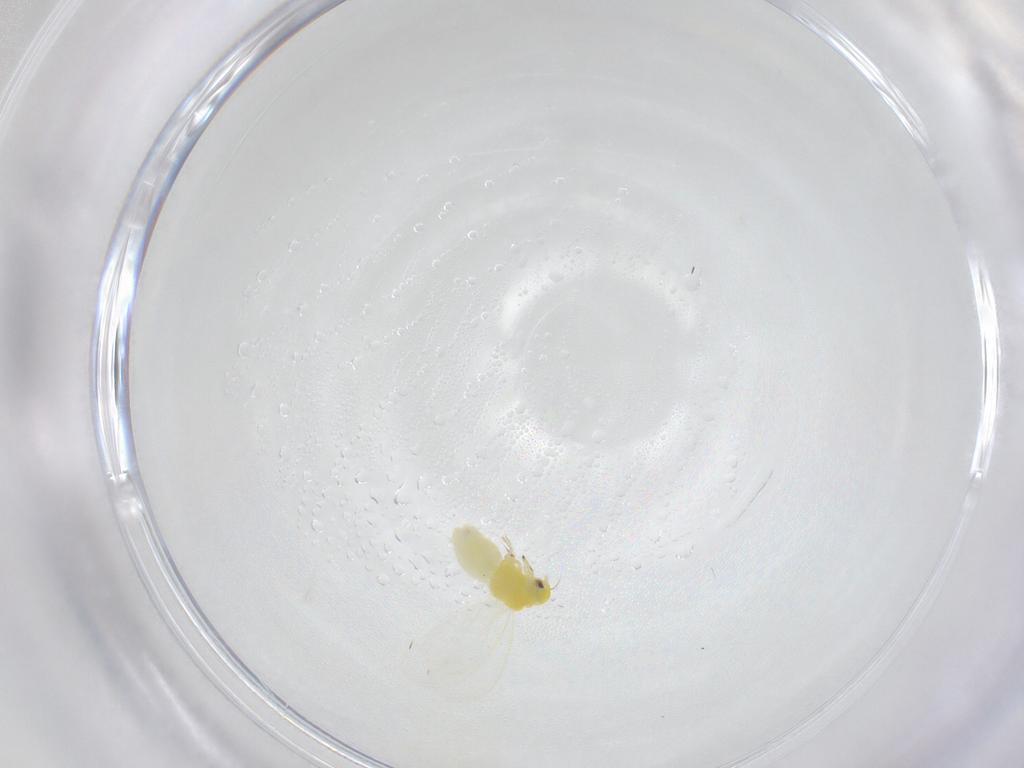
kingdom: Animalia
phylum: Arthropoda
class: Insecta
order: Hemiptera
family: Aleyrodidae
